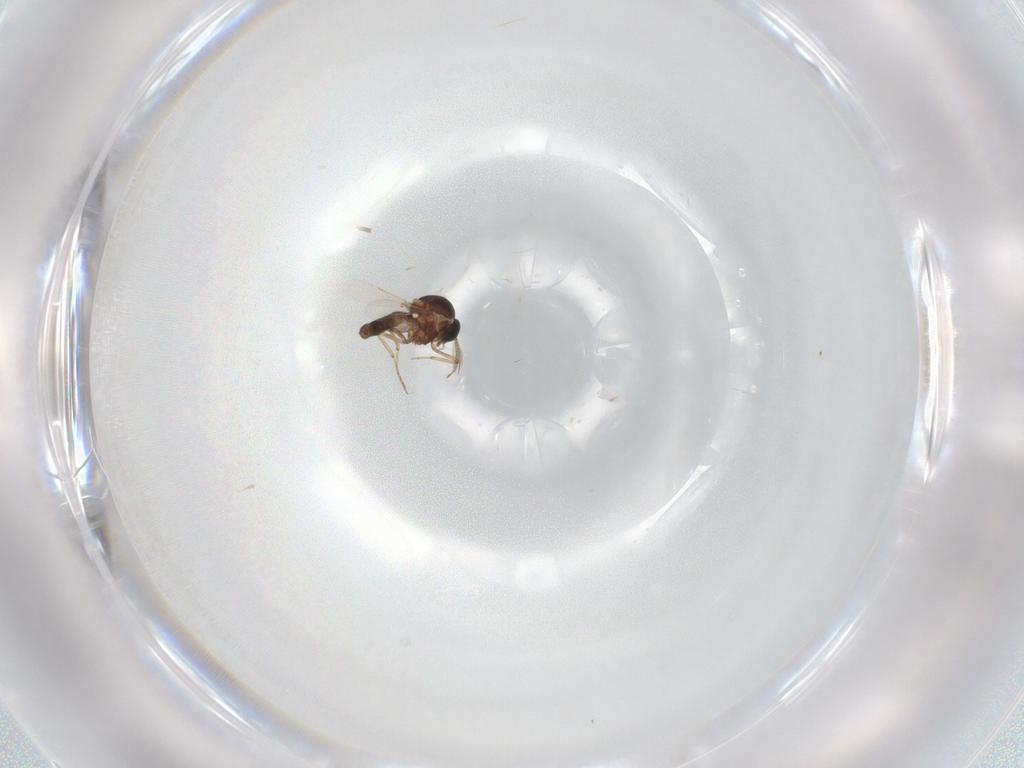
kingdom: Animalia
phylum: Arthropoda
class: Insecta
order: Diptera
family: Ceratopogonidae
